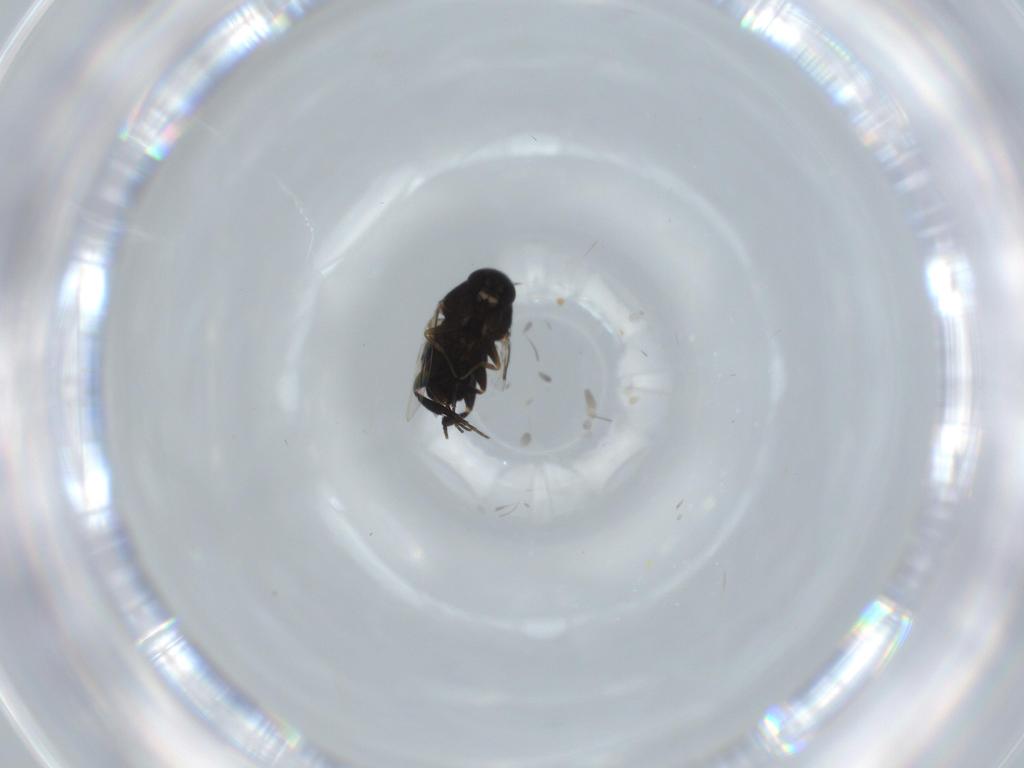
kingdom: Animalia
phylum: Arthropoda
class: Insecta
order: Diptera
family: Phoridae
